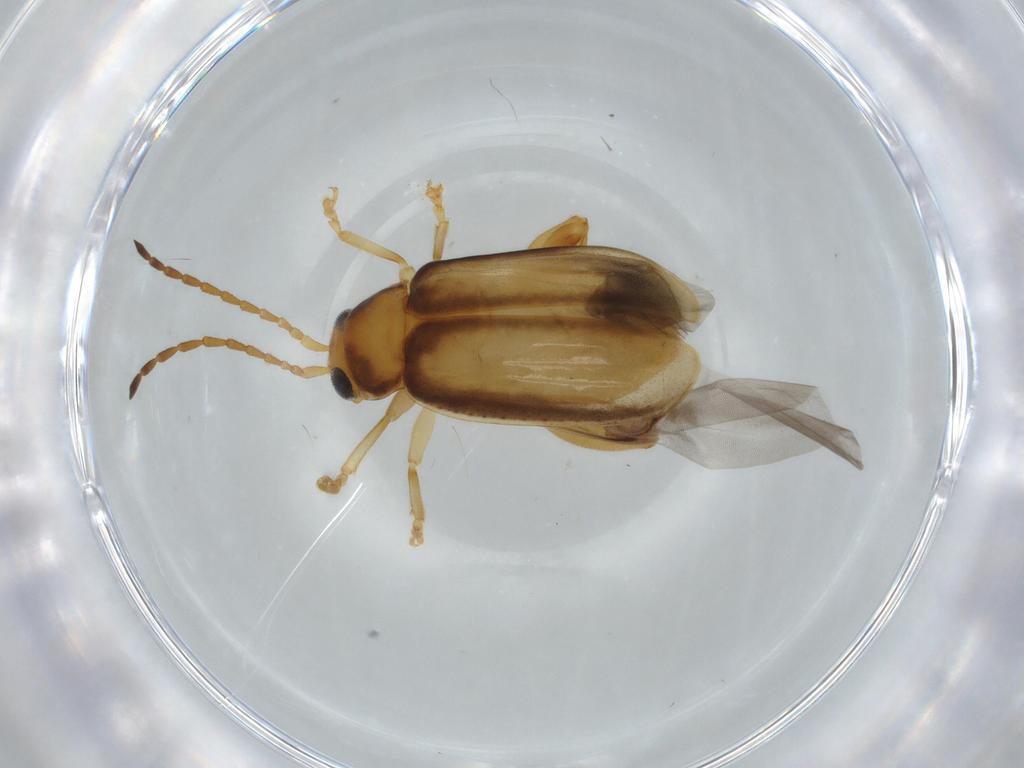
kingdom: Animalia
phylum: Arthropoda
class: Insecta
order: Coleoptera
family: Chrysomelidae
